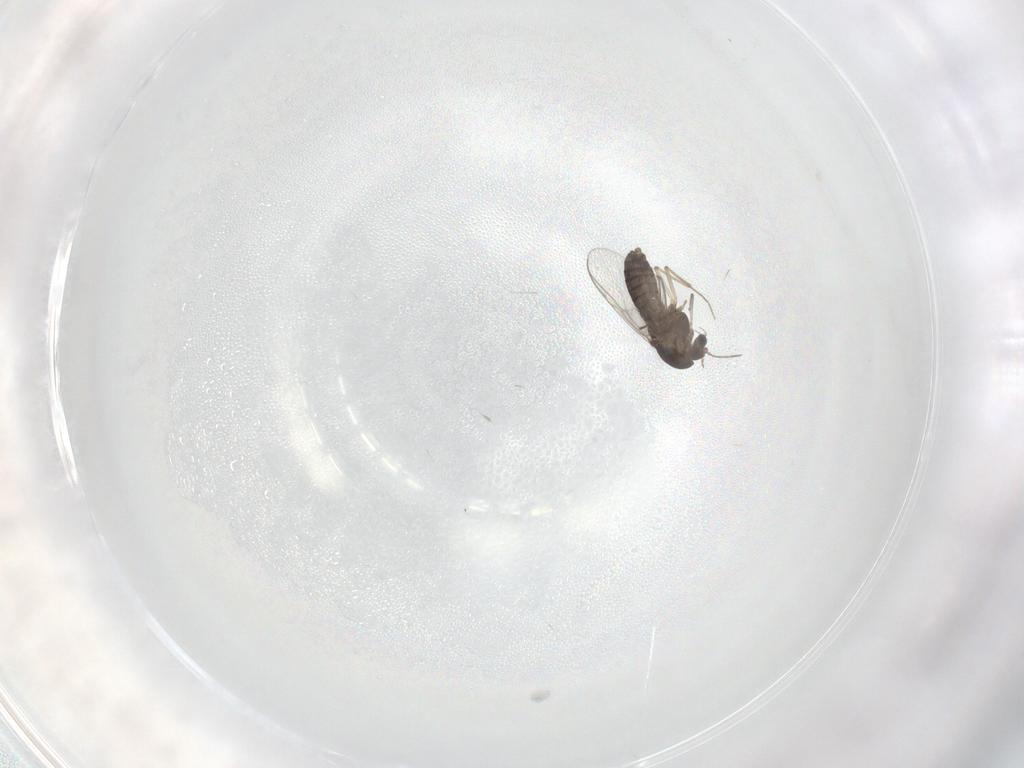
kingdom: Animalia
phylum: Arthropoda
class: Insecta
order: Diptera
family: Chironomidae
